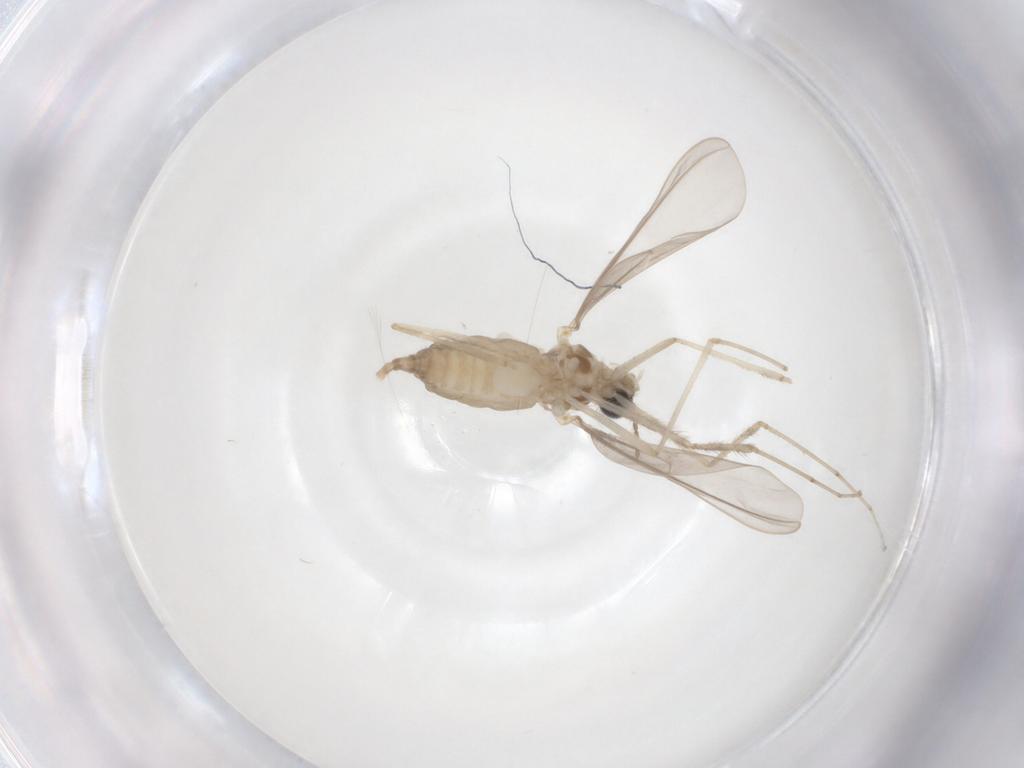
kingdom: Animalia
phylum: Arthropoda
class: Insecta
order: Diptera
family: Cecidomyiidae
